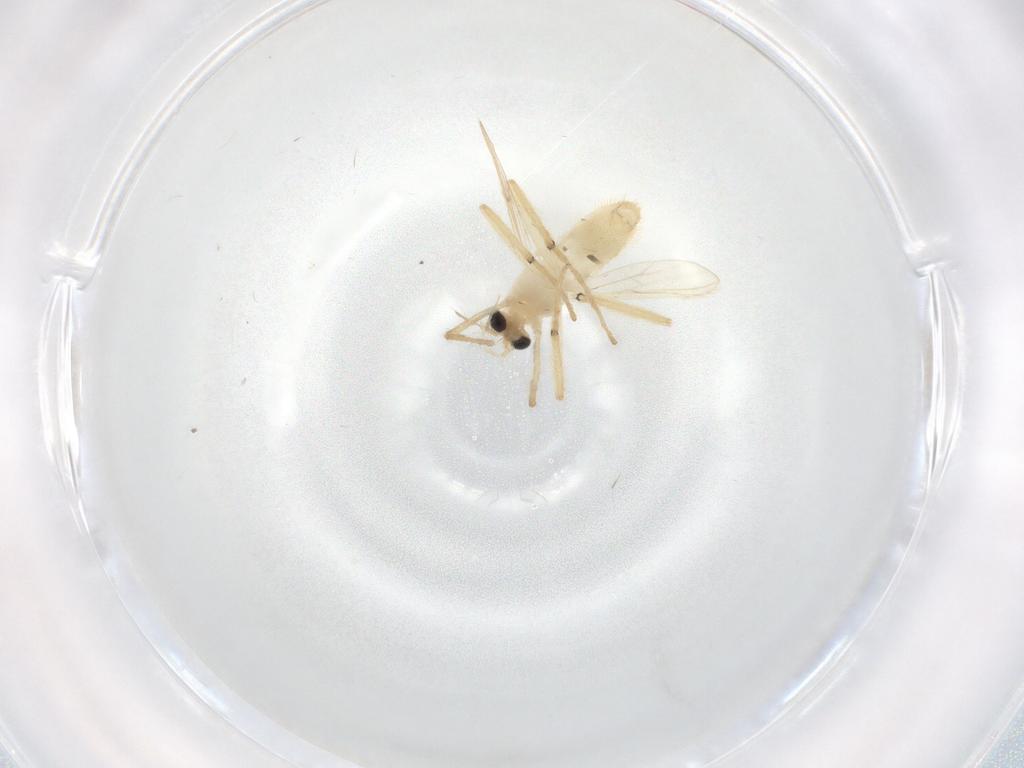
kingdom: Animalia
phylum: Arthropoda
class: Insecta
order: Diptera
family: Chironomidae
